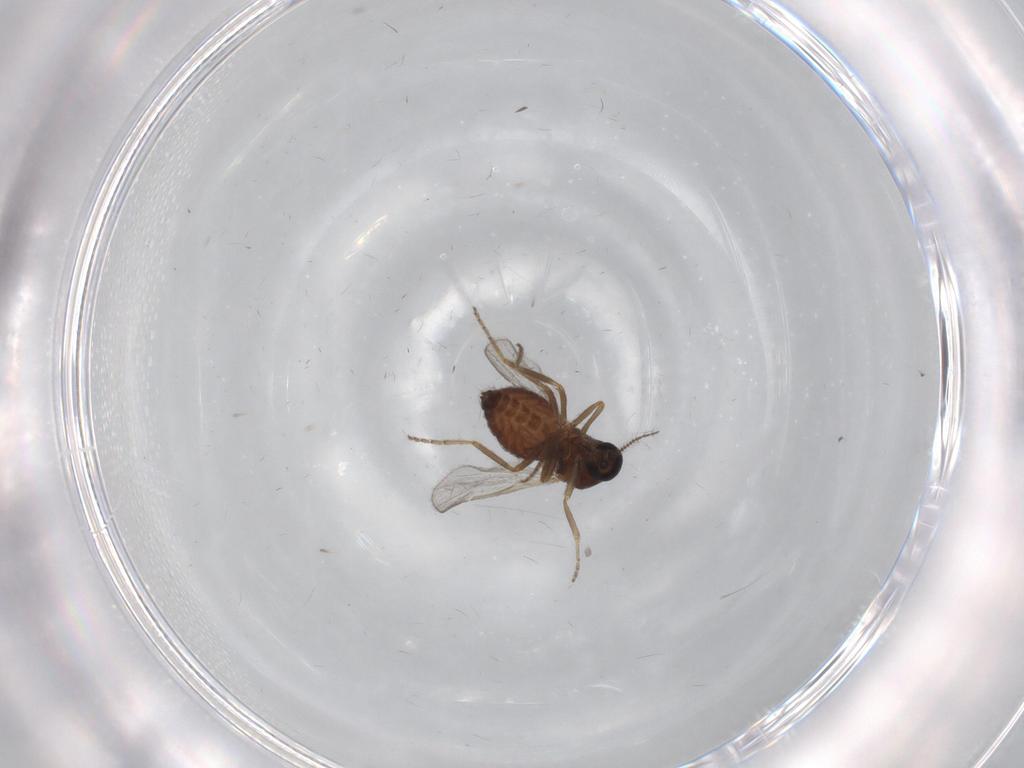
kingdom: Animalia
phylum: Arthropoda
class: Insecta
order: Diptera
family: Ceratopogonidae
